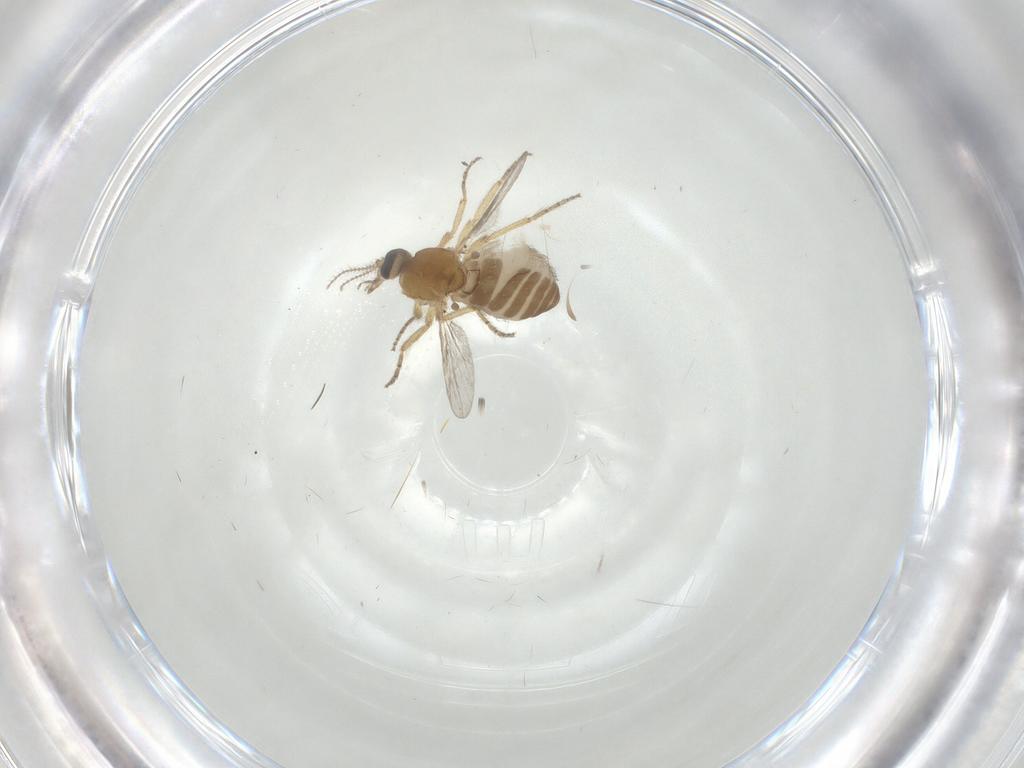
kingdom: Animalia
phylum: Arthropoda
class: Insecta
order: Diptera
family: Ceratopogonidae
